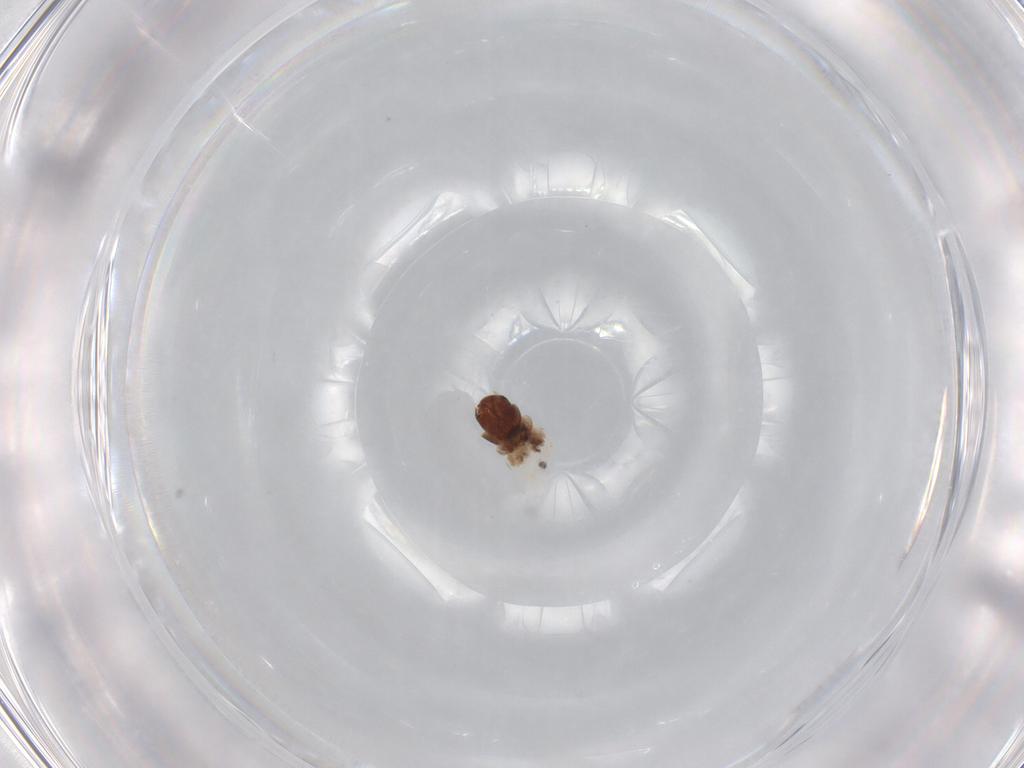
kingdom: Animalia
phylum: Arthropoda
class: Insecta
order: Lepidoptera
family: Psychidae
